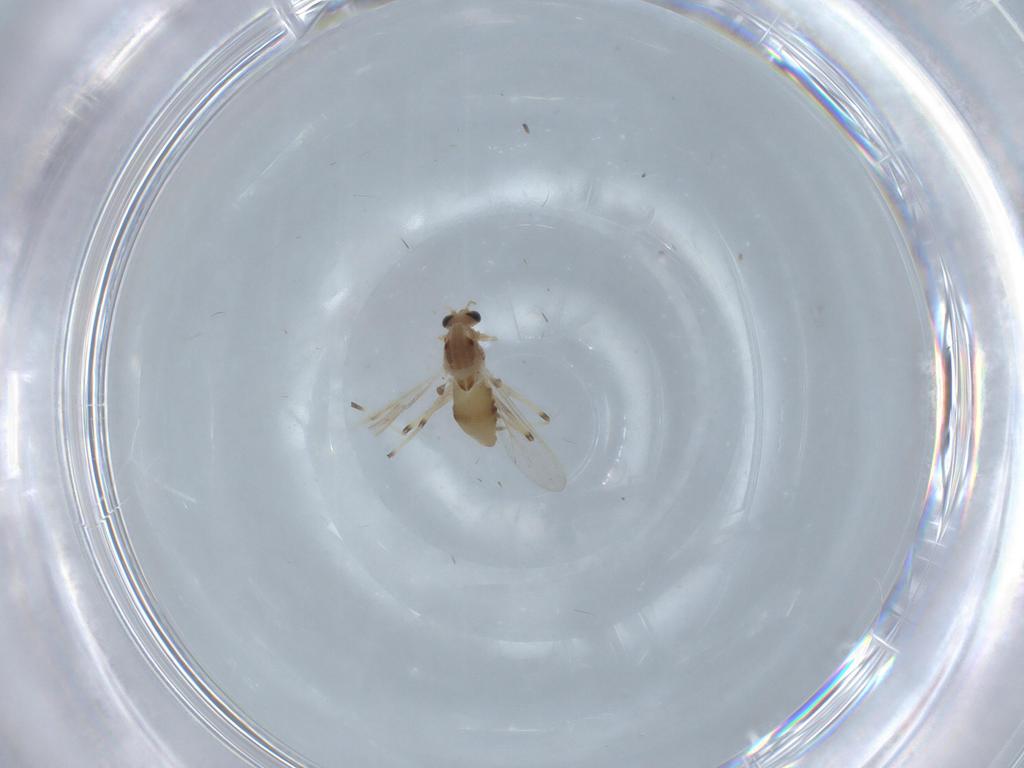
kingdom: Animalia
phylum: Arthropoda
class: Insecta
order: Diptera
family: Chironomidae
